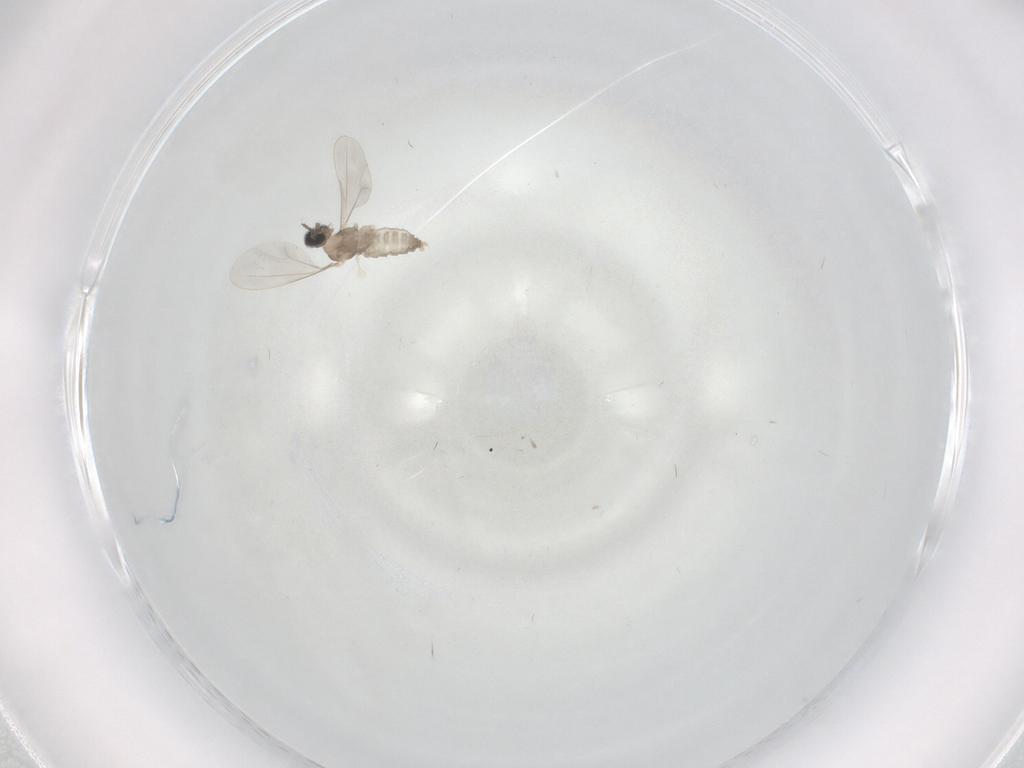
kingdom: Animalia
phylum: Arthropoda
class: Insecta
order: Diptera
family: Cecidomyiidae
